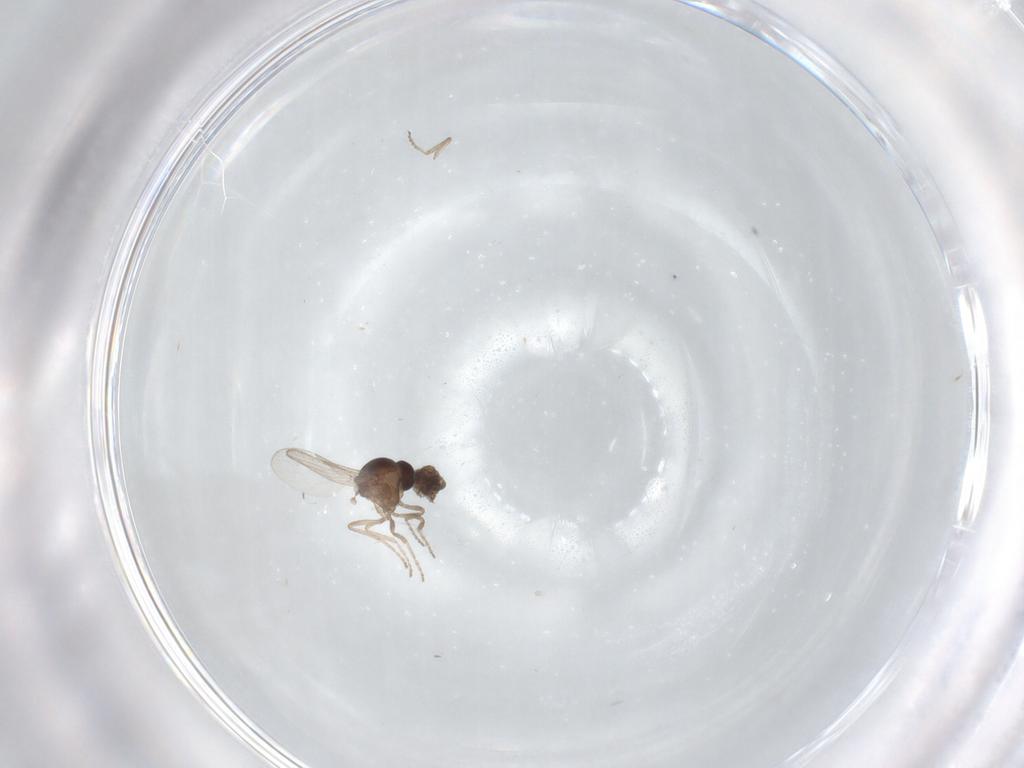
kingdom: Animalia
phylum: Arthropoda
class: Insecta
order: Diptera
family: Ceratopogonidae
